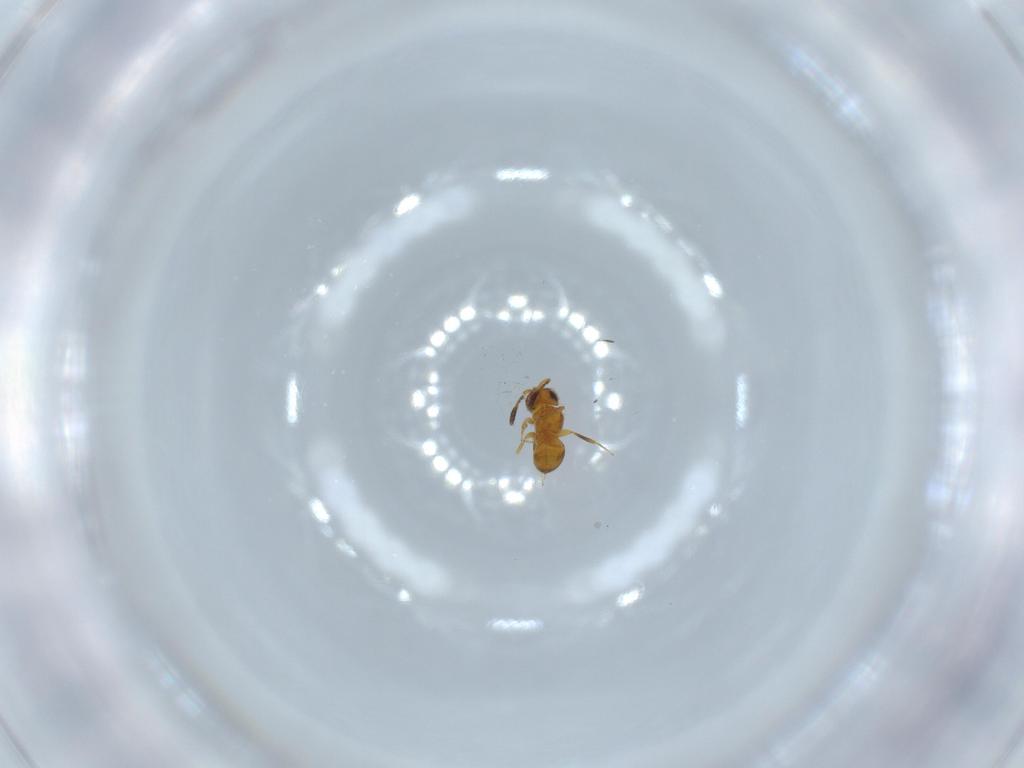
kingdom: Animalia
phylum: Arthropoda
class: Insecta
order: Hymenoptera
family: Scelionidae
